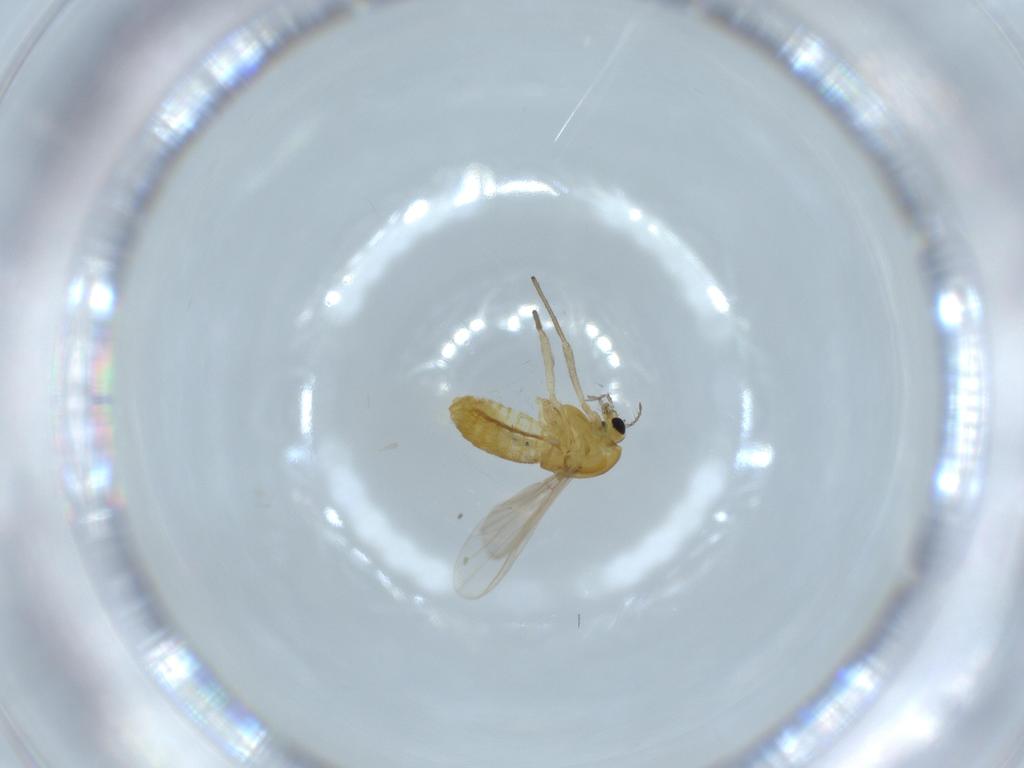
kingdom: Animalia
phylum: Arthropoda
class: Insecta
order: Diptera
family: Chironomidae
